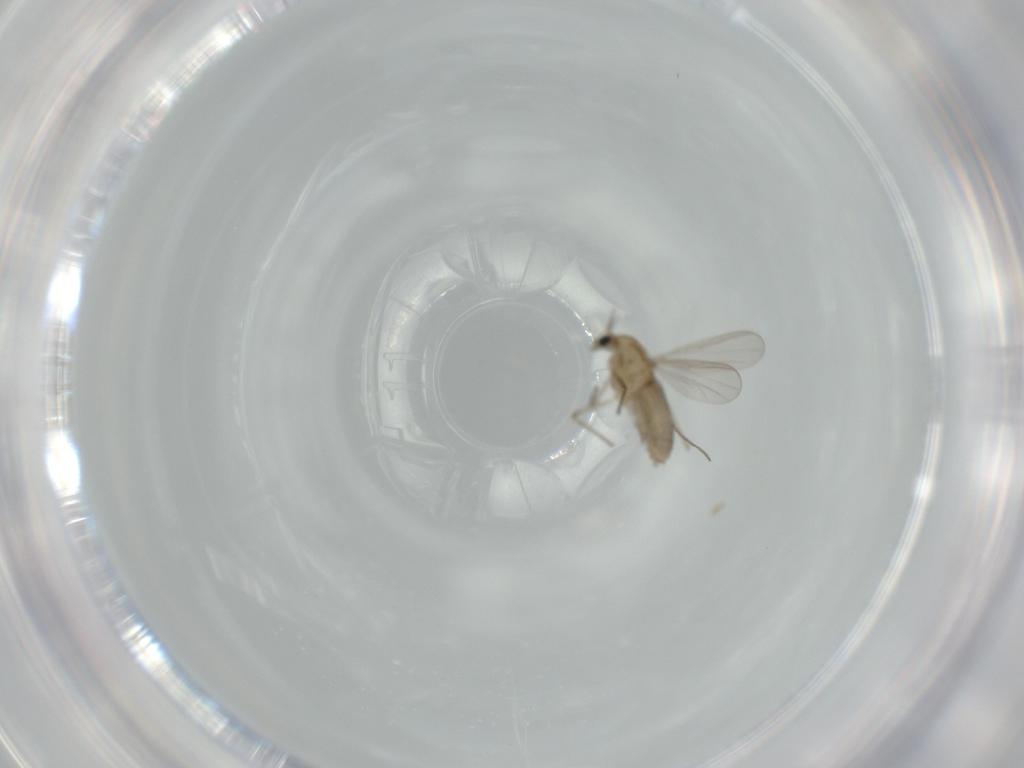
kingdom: Animalia
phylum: Arthropoda
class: Insecta
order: Diptera
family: Chironomidae
